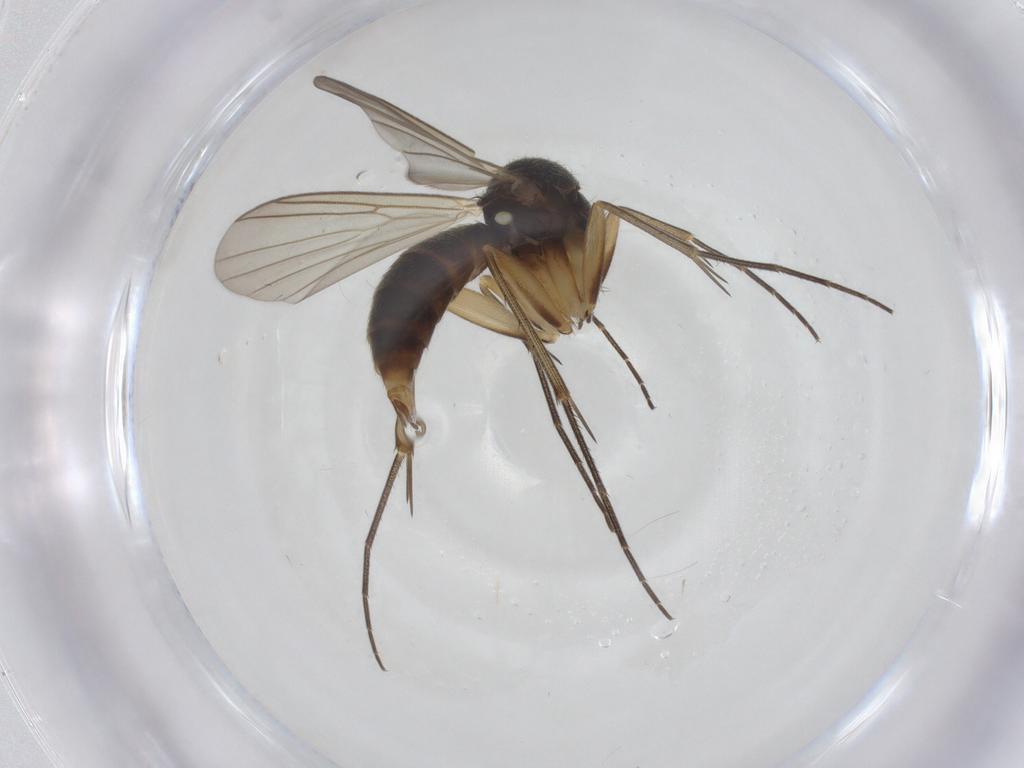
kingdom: Animalia
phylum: Arthropoda
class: Insecta
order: Diptera
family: Mycetophilidae
